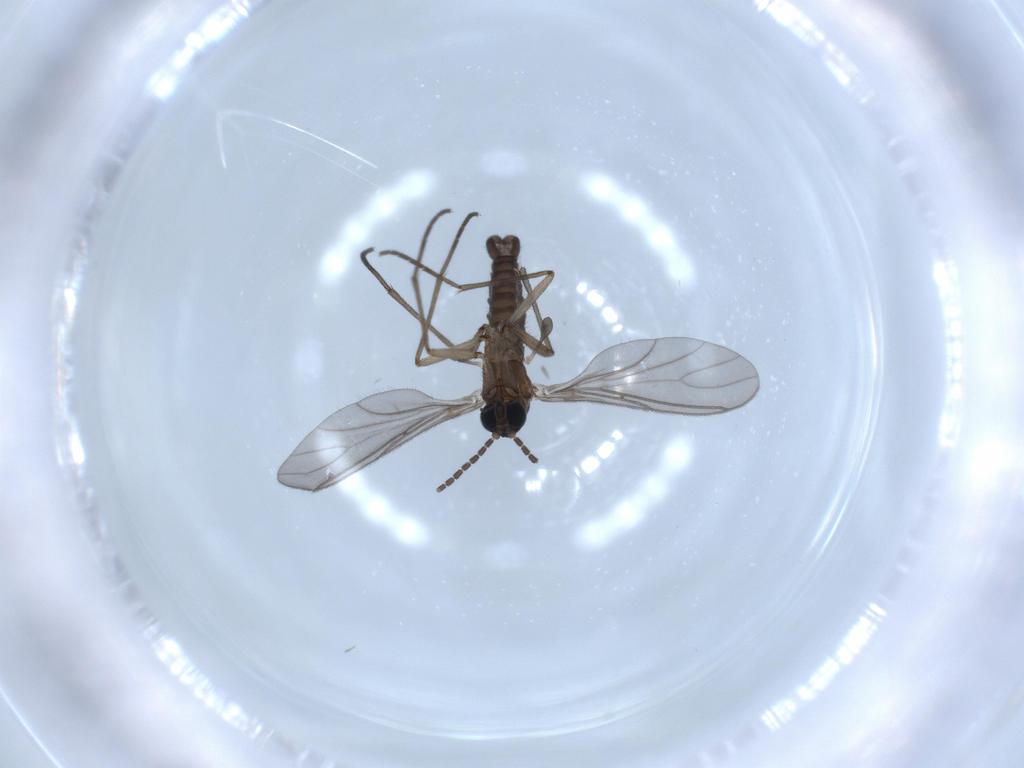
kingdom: Animalia
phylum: Arthropoda
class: Insecta
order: Diptera
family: Sciaridae
